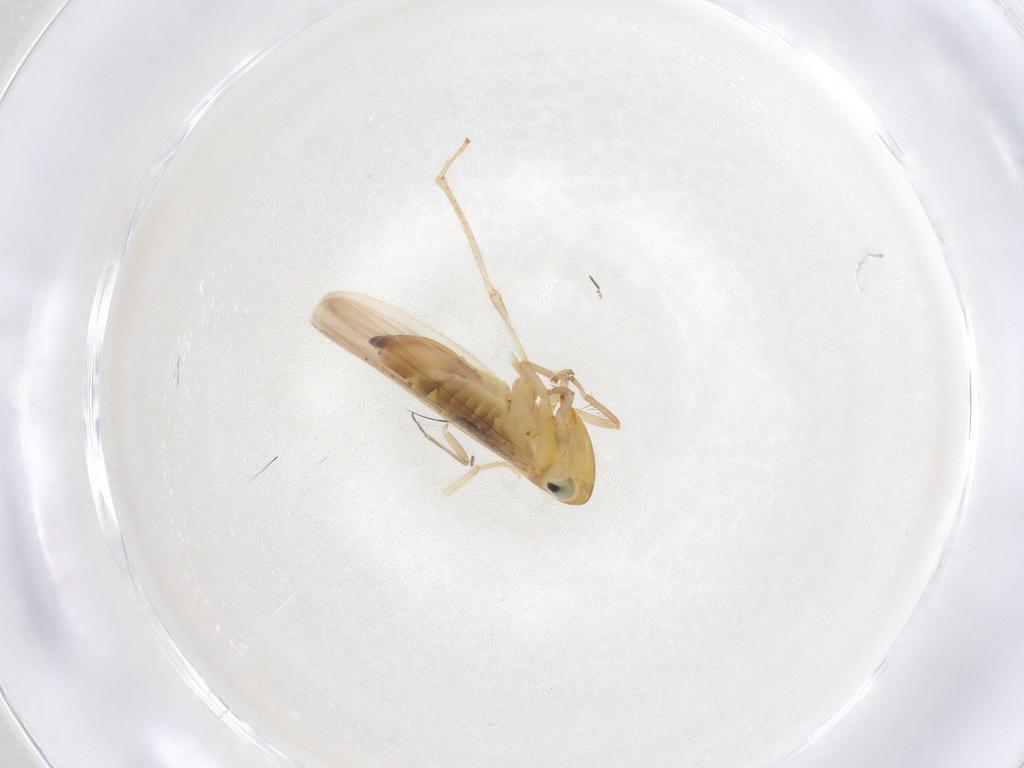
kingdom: Animalia
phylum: Arthropoda
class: Insecta
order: Hemiptera
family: Cicadellidae
